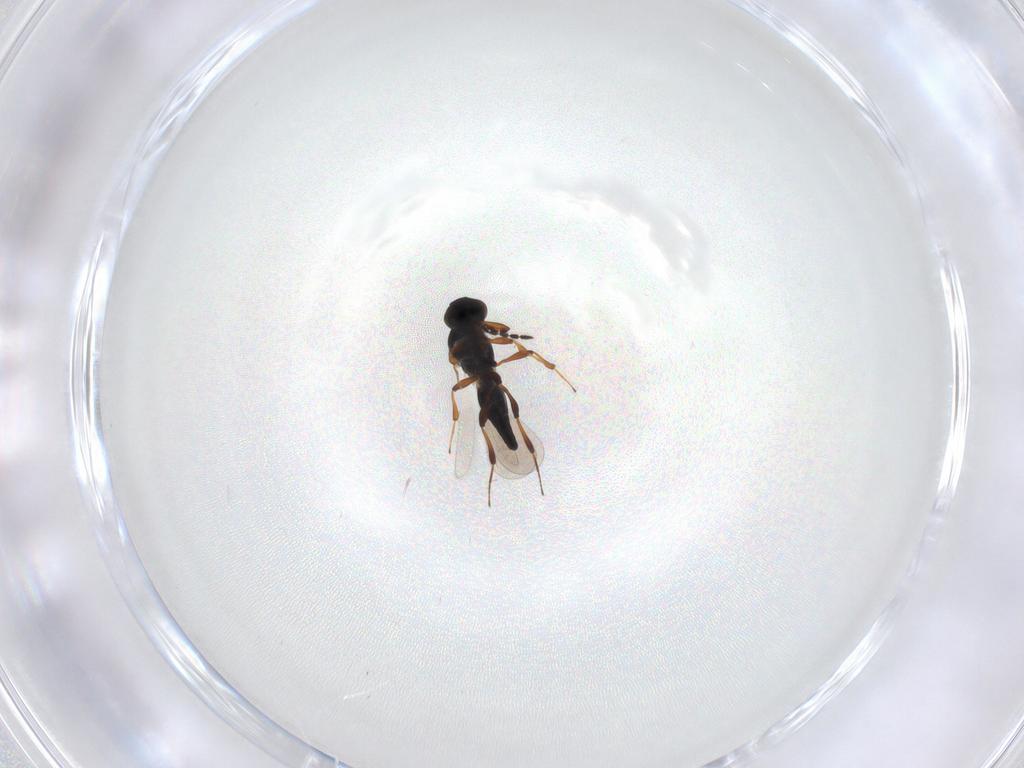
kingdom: Animalia
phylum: Arthropoda
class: Insecta
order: Hymenoptera
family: Platygastridae
